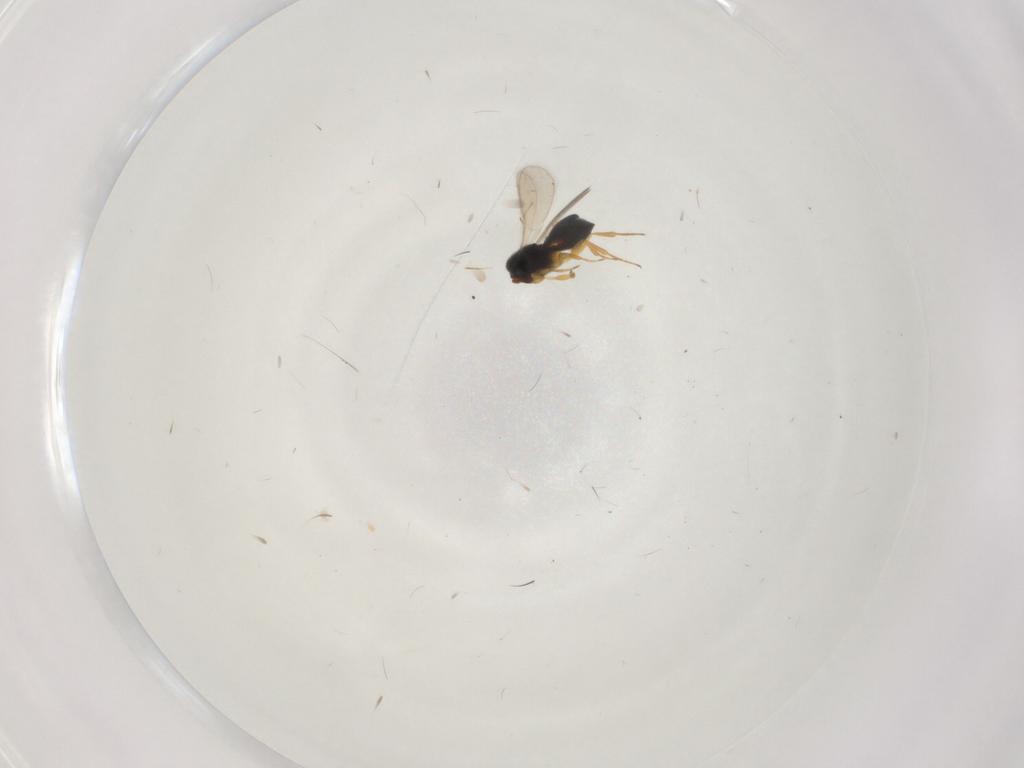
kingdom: Animalia
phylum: Arthropoda
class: Insecta
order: Hymenoptera
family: Scelionidae
